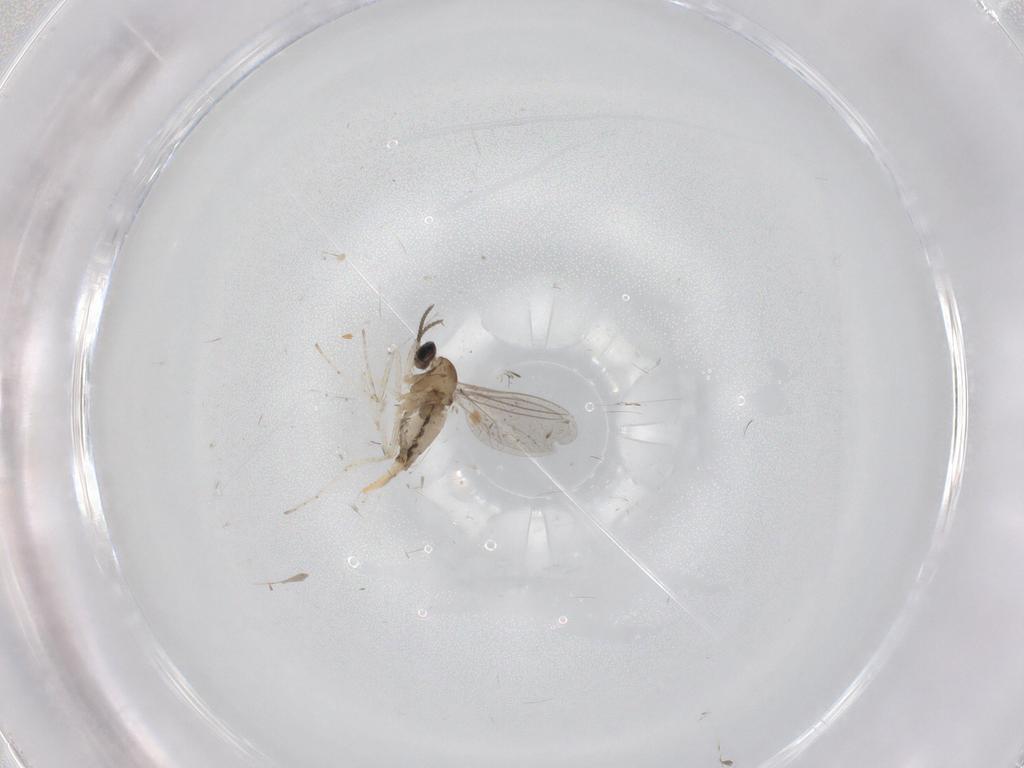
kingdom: Animalia
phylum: Arthropoda
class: Insecta
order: Diptera
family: Cecidomyiidae
